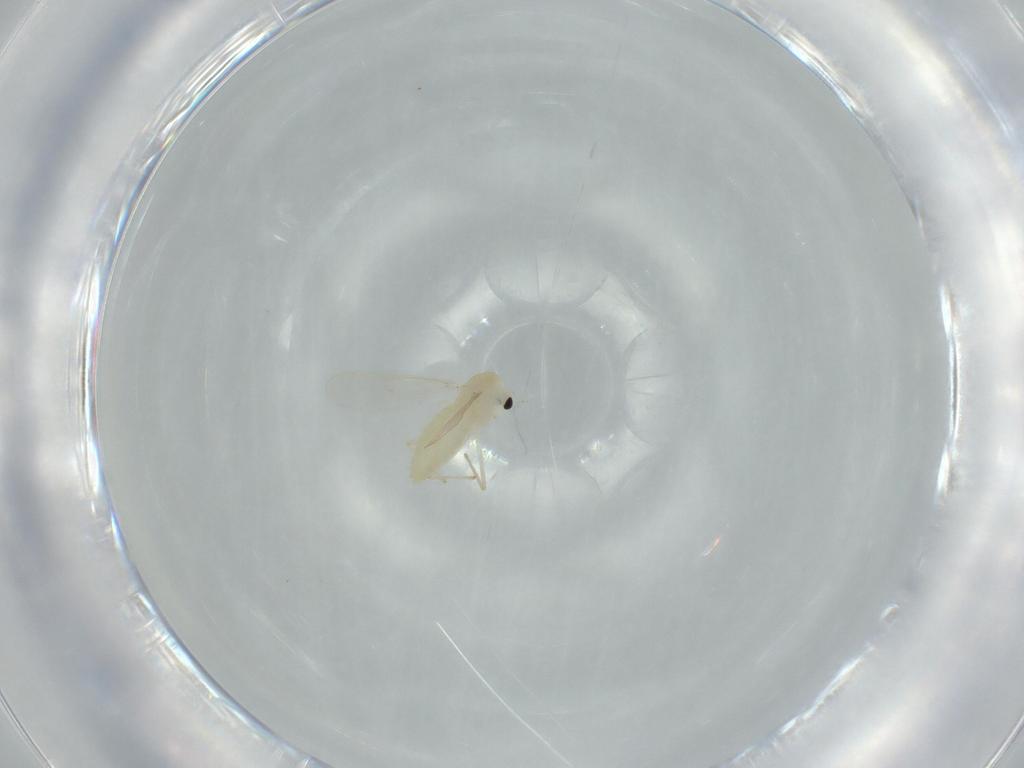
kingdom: Animalia
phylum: Arthropoda
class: Insecta
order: Diptera
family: Chironomidae
